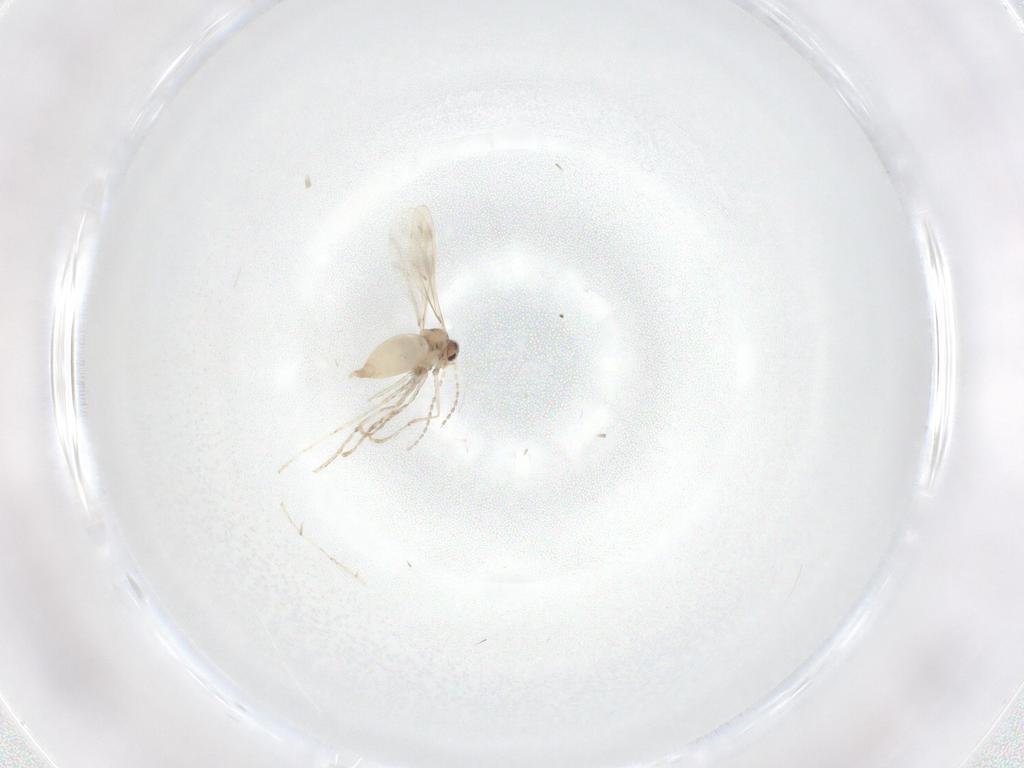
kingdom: Animalia
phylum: Arthropoda
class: Insecta
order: Diptera
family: Cecidomyiidae
